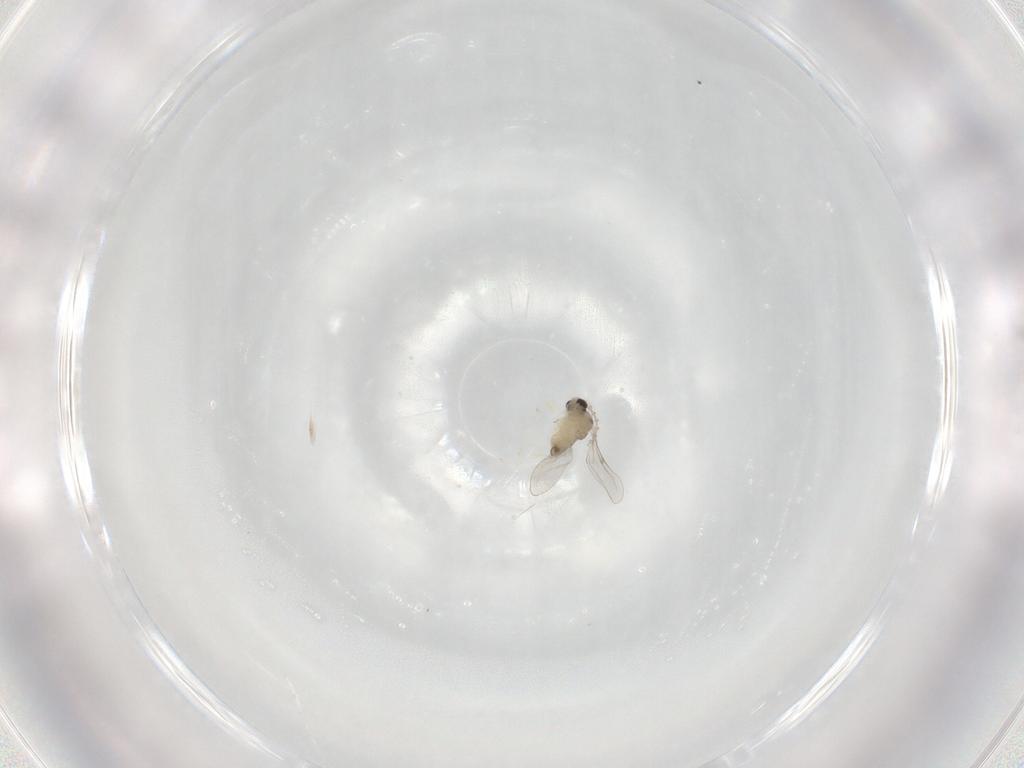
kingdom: Animalia
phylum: Arthropoda
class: Insecta
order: Diptera
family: Cecidomyiidae
